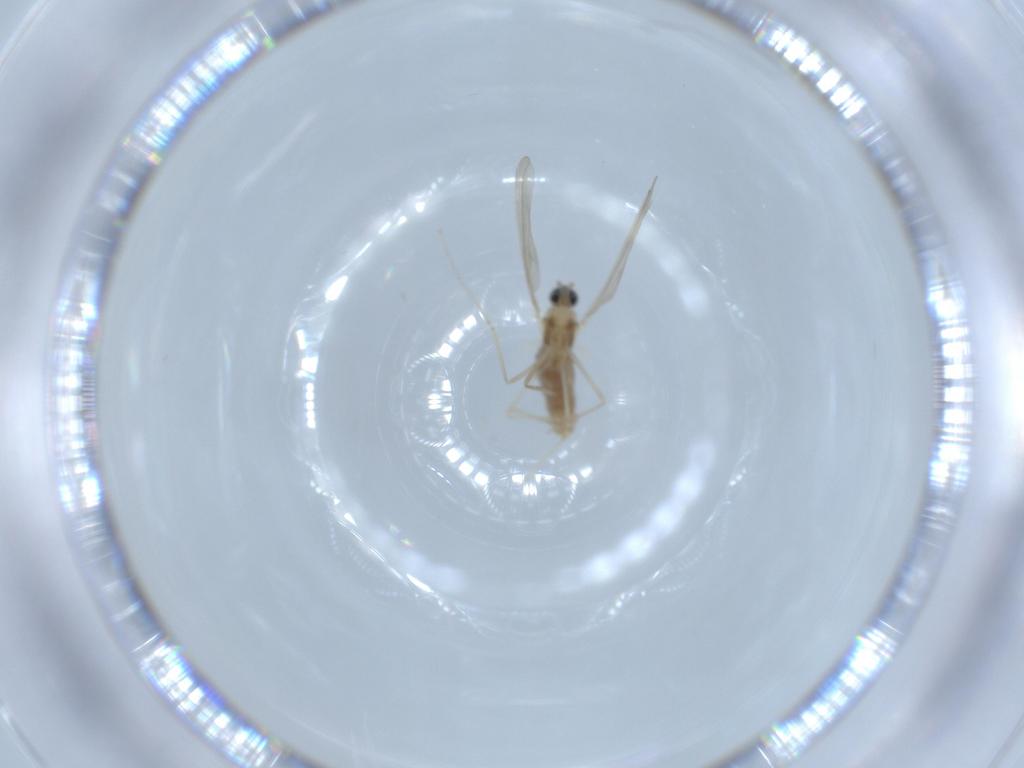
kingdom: Animalia
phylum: Arthropoda
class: Insecta
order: Diptera
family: Cecidomyiidae
